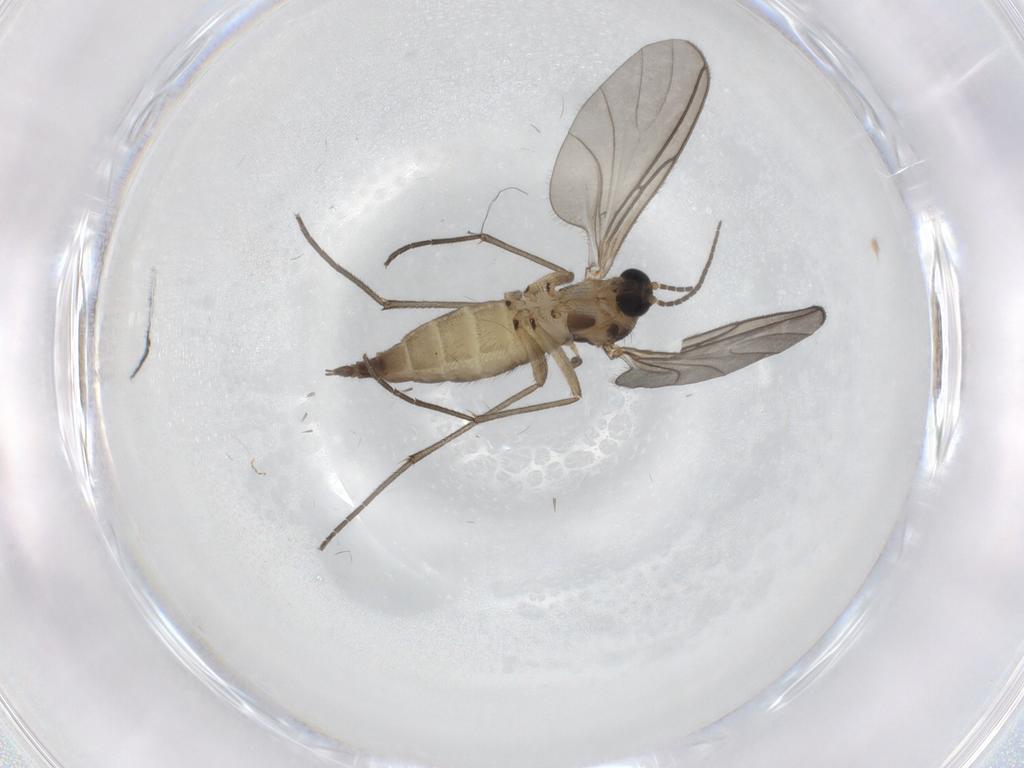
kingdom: Animalia
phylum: Arthropoda
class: Insecta
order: Diptera
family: Sciaridae
